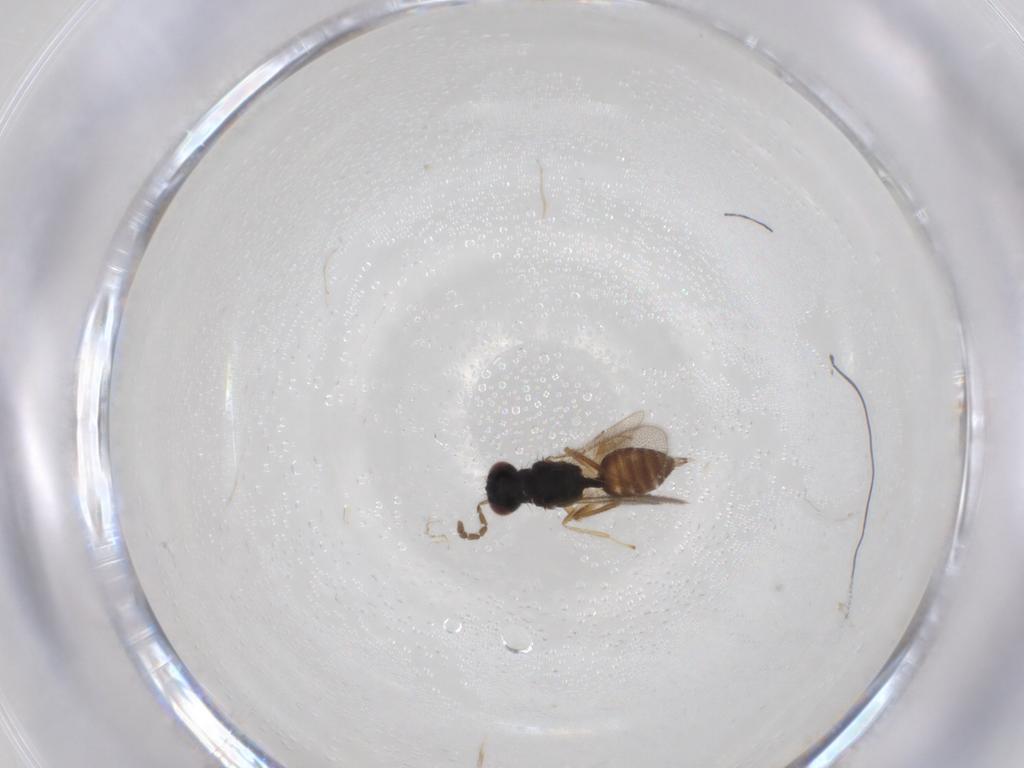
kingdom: Animalia
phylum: Arthropoda
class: Insecta
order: Hymenoptera
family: Eulophidae
